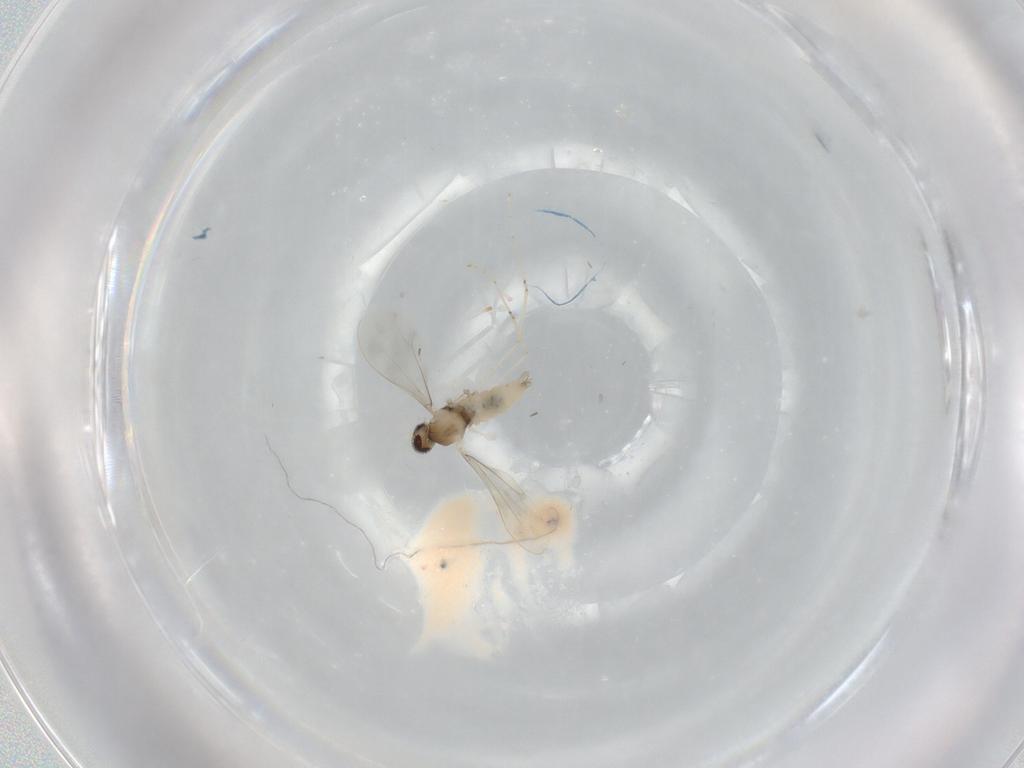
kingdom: Animalia
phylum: Arthropoda
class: Insecta
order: Diptera
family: Cecidomyiidae
